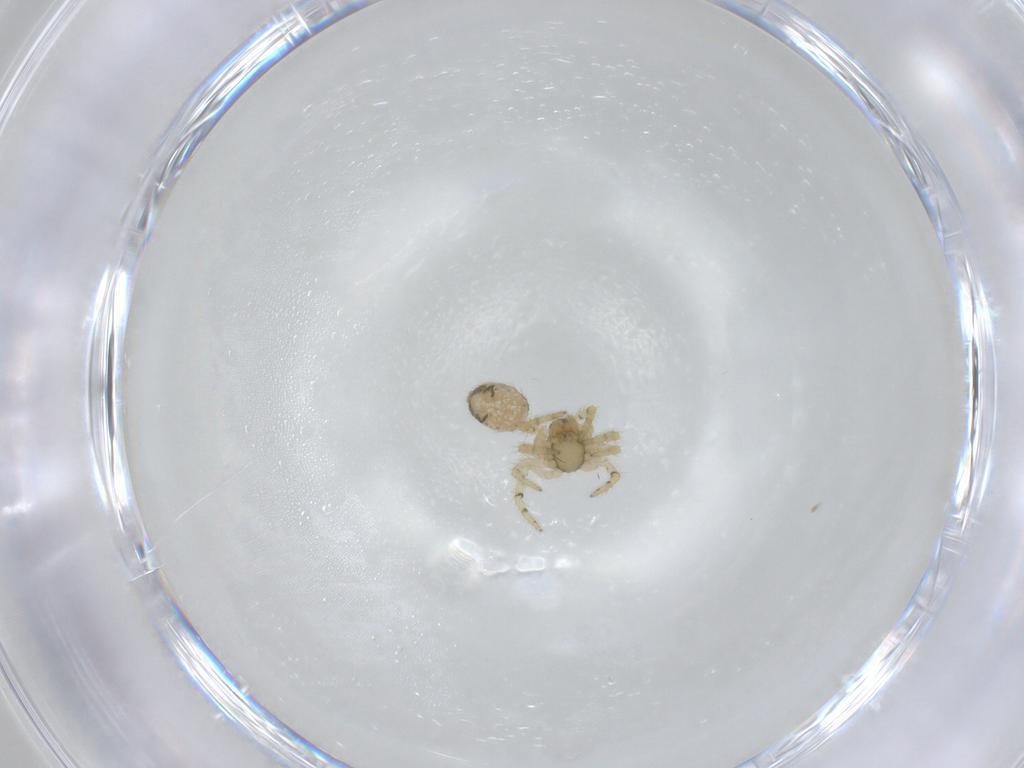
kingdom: Animalia
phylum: Arthropoda
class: Arachnida
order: Araneae
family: Theridiidae
